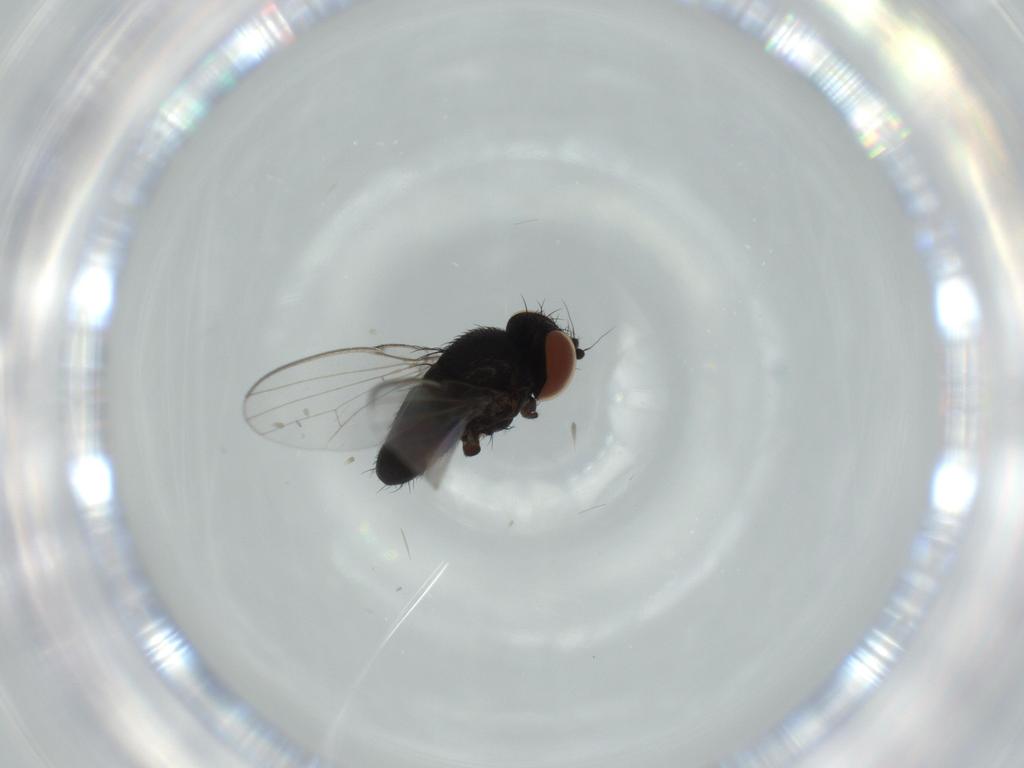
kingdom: Animalia
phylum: Arthropoda
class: Insecta
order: Diptera
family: Milichiidae
